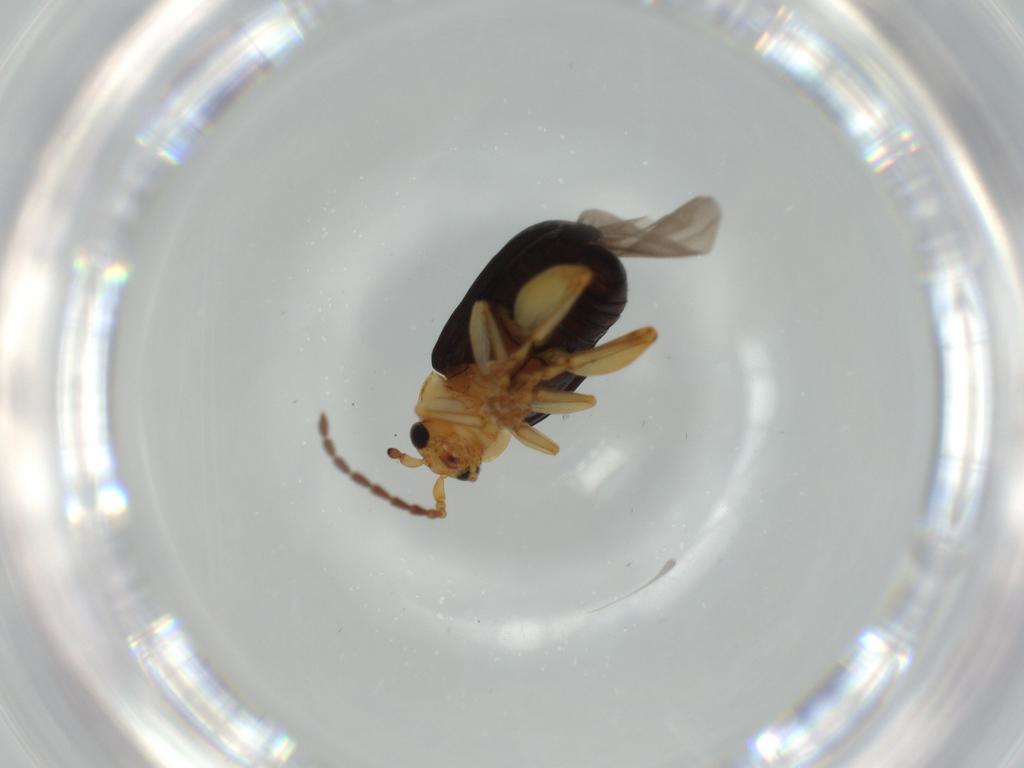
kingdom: Animalia
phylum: Arthropoda
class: Insecta
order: Coleoptera
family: Chrysomelidae
